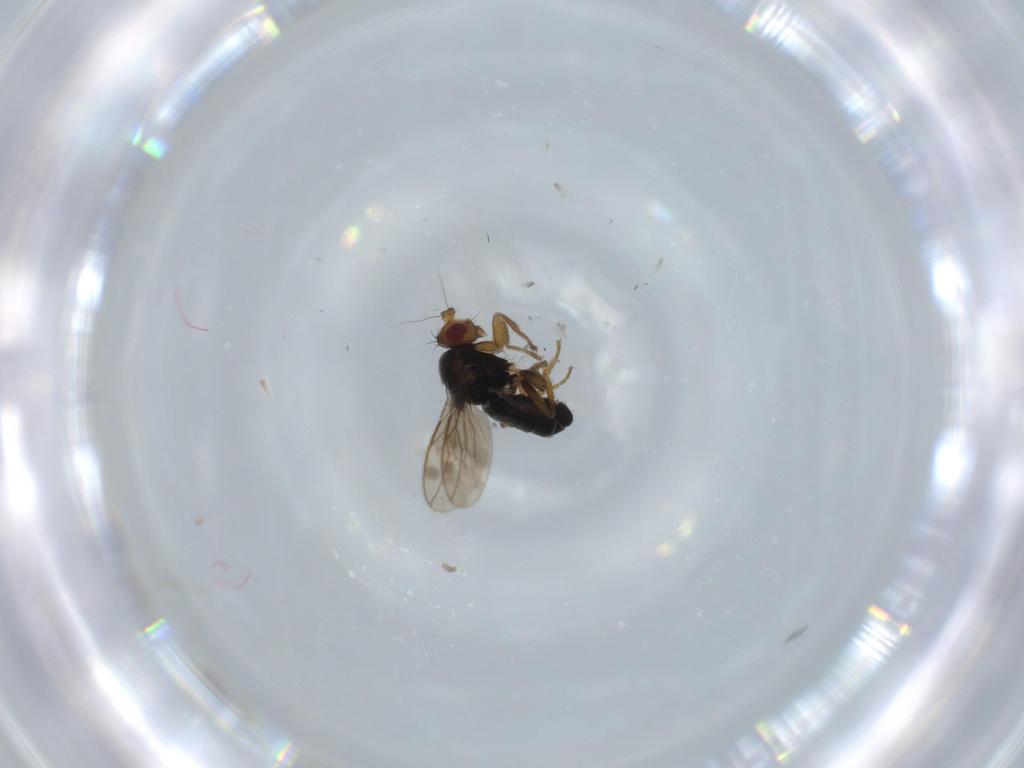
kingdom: Animalia
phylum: Arthropoda
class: Insecta
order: Diptera
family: Sphaeroceridae
